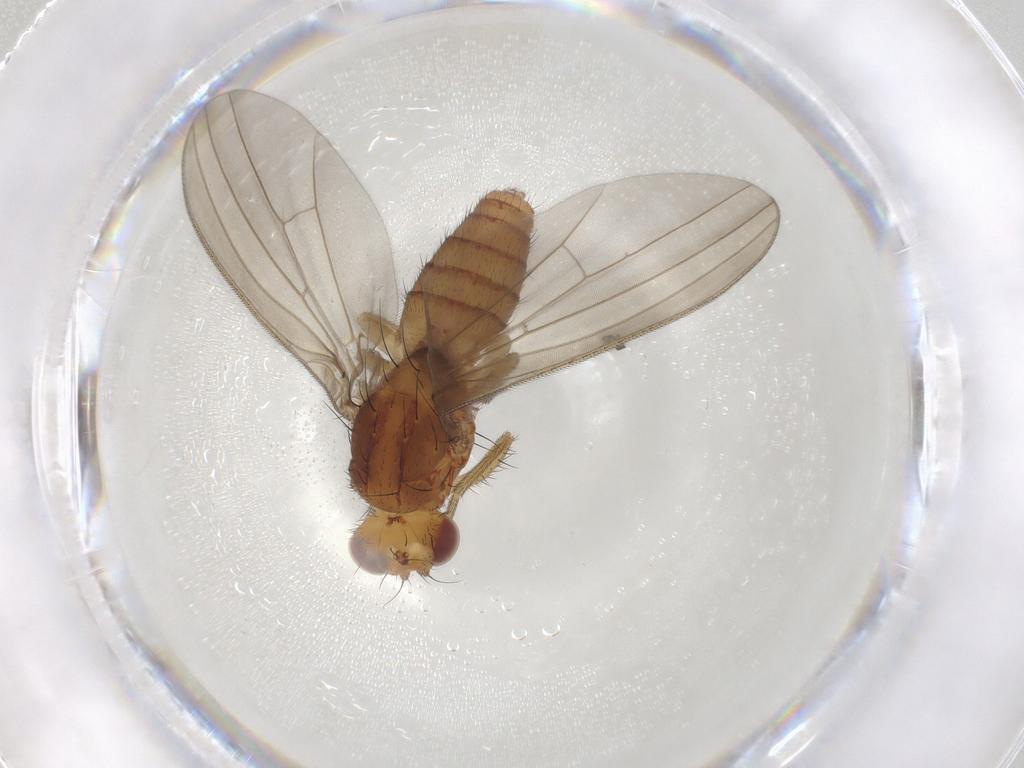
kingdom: Animalia
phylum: Arthropoda
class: Insecta
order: Diptera
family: Natalimyzidae
